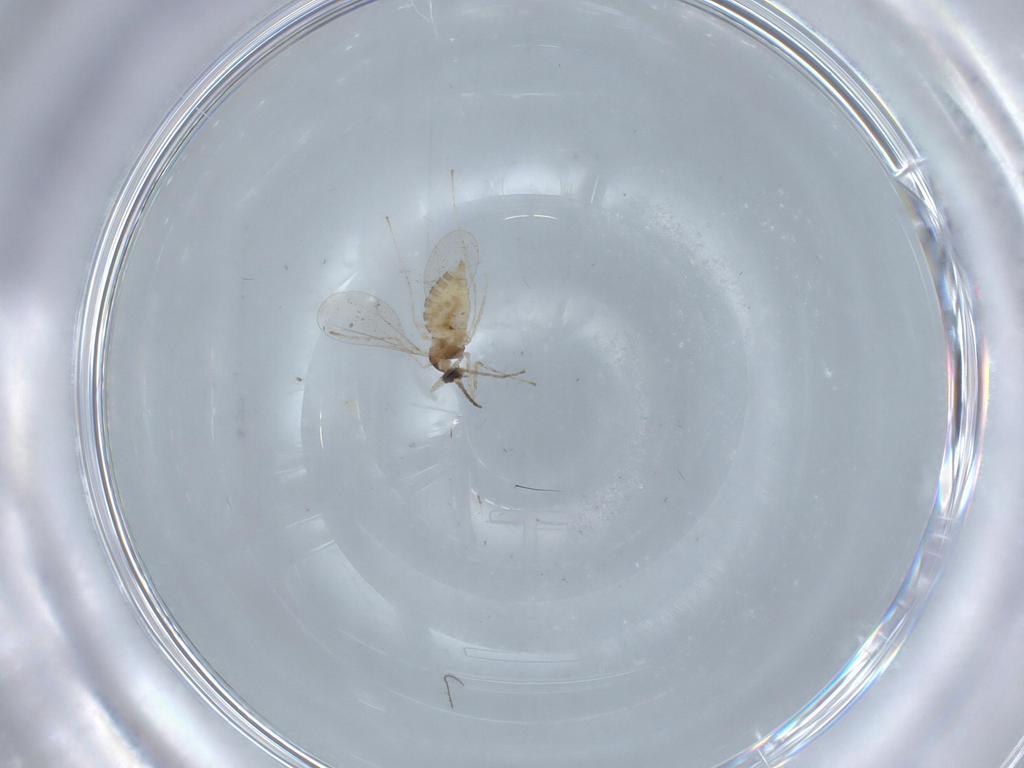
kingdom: Animalia
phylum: Arthropoda
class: Insecta
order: Diptera
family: Cecidomyiidae
